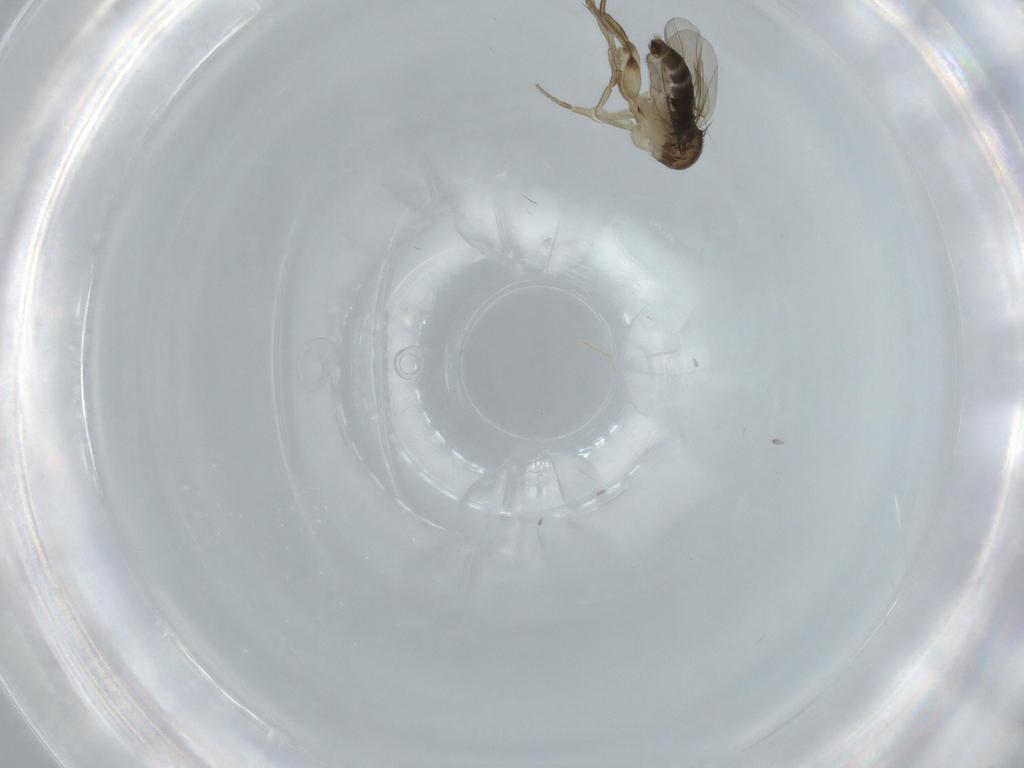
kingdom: Animalia
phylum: Arthropoda
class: Insecta
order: Diptera
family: Phoridae
